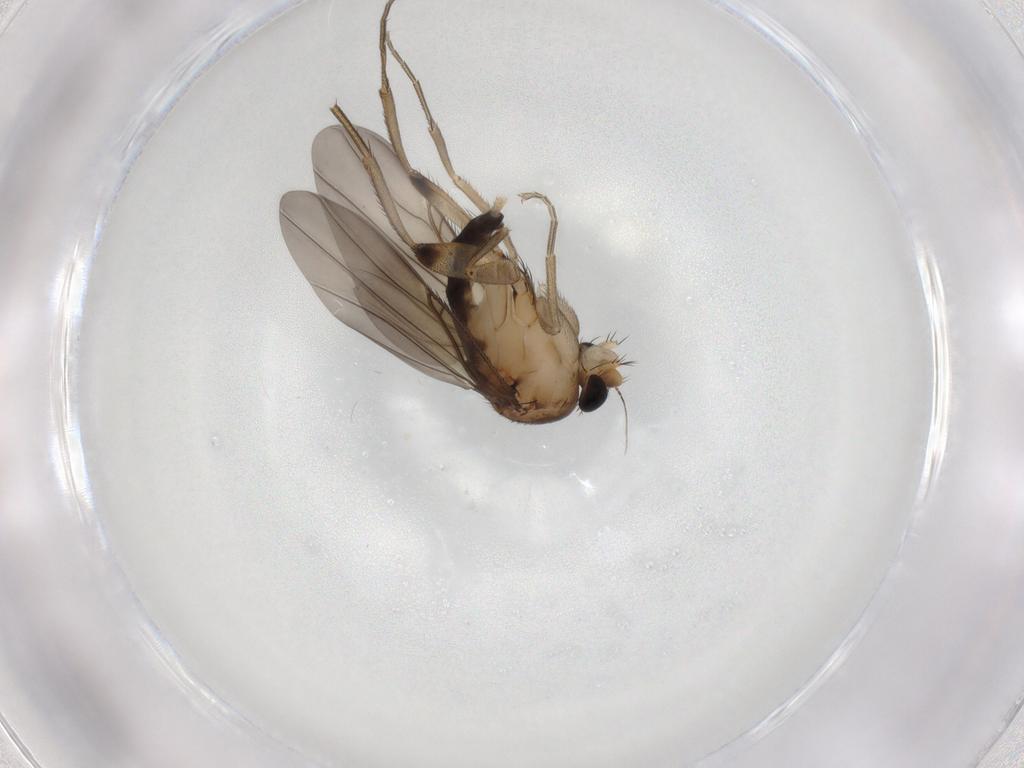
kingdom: Animalia
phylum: Arthropoda
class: Insecta
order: Diptera
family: Phoridae
